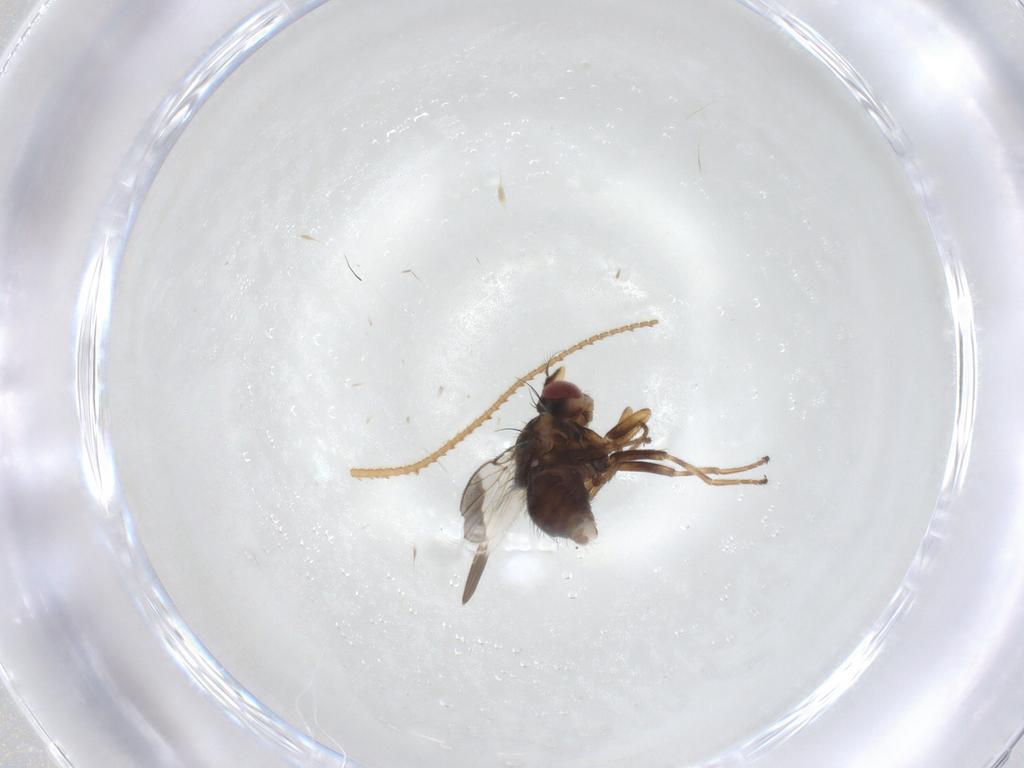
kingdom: Animalia
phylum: Arthropoda
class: Insecta
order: Diptera
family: Ephydridae
